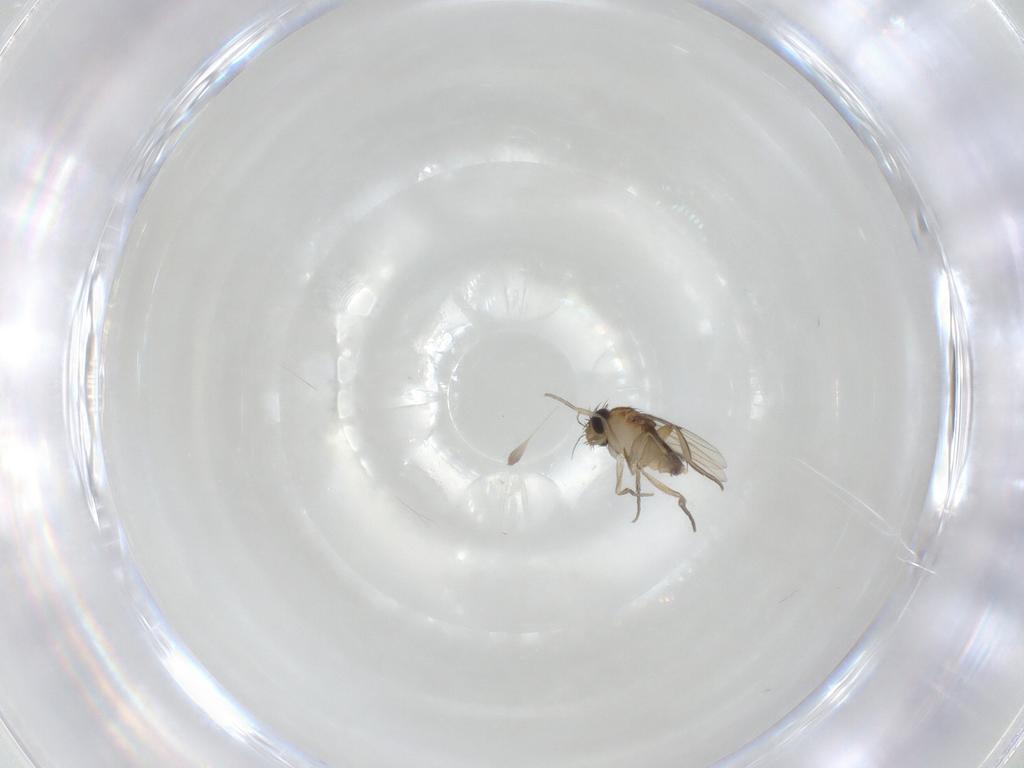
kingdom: Animalia
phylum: Arthropoda
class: Insecta
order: Diptera
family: Phoridae
